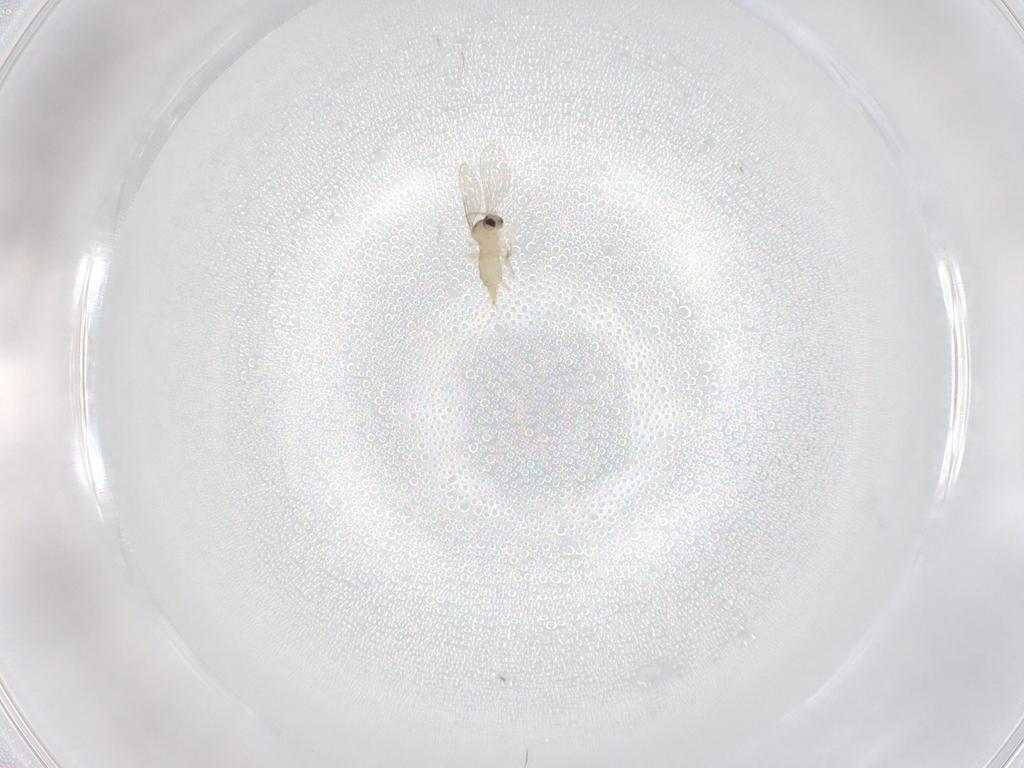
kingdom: Animalia
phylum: Arthropoda
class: Insecta
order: Diptera
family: Cecidomyiidae
